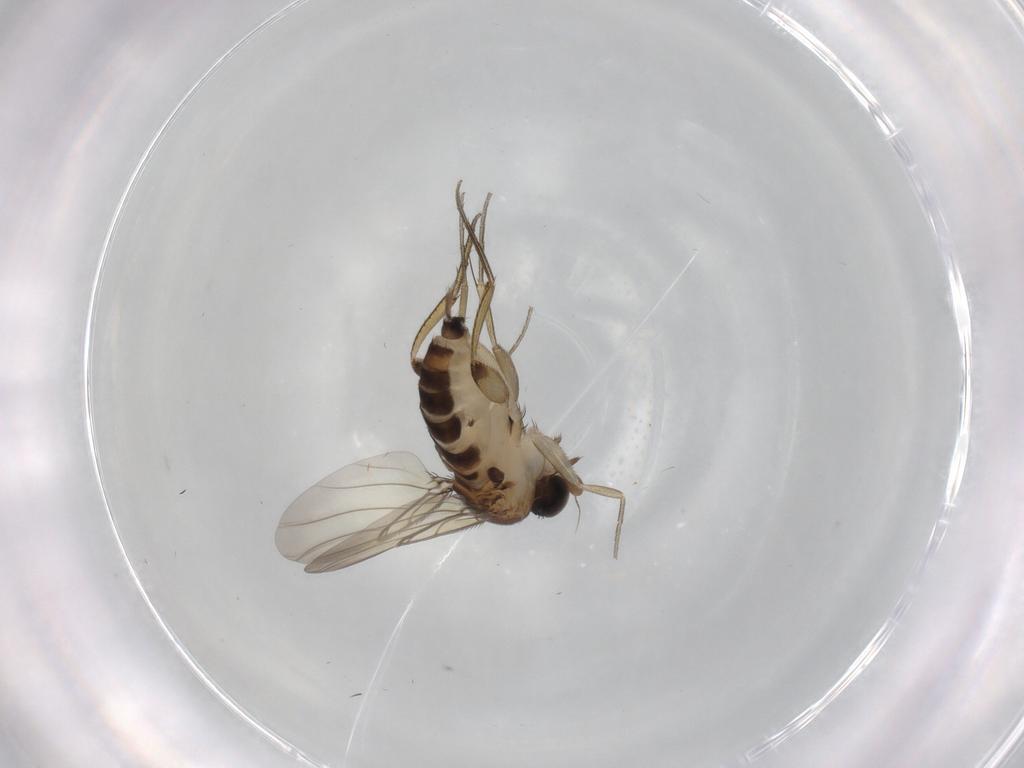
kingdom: Animalia
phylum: Arthropoda
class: Insecta
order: Diptera
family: Phoridae
